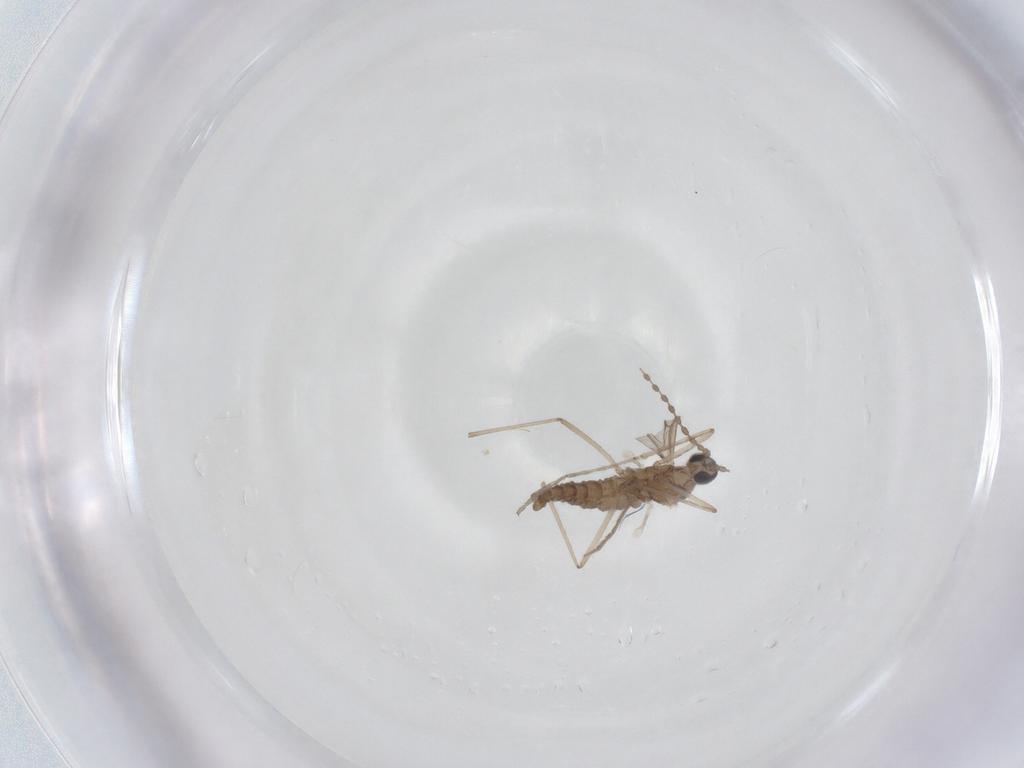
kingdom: Animalia
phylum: Arthropoda
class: Insecta
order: Diptera
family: Cecidomyiidae
